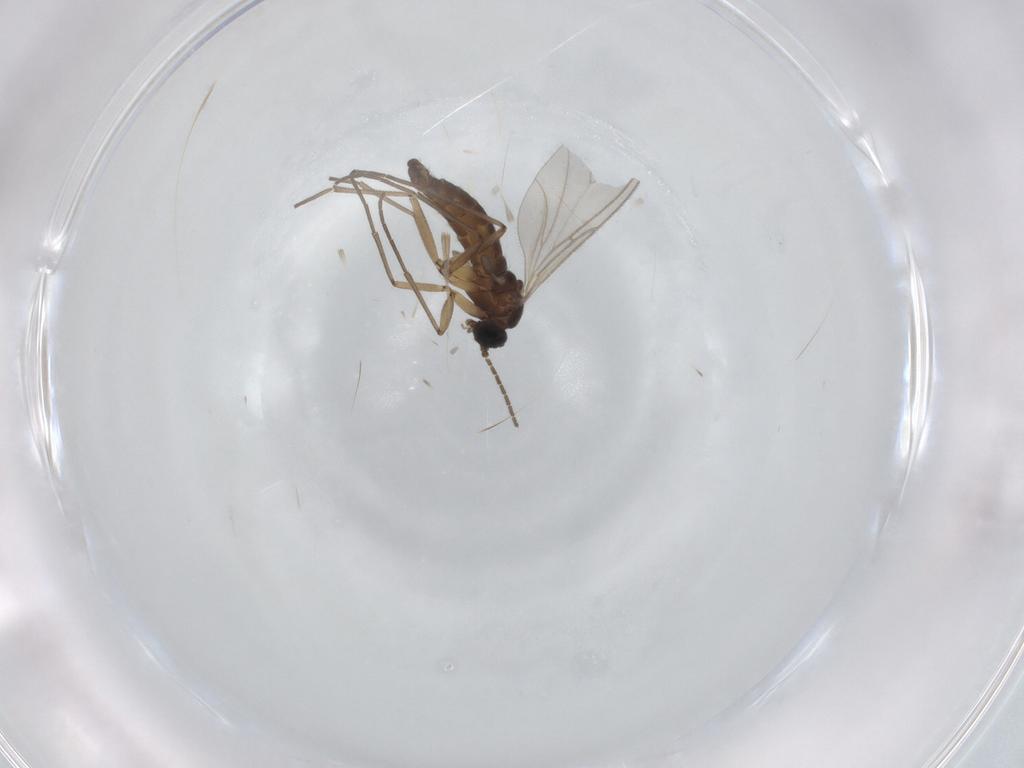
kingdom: Animalia
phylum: Arthropoda
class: Insecta
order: Diptera
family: Sciaridae
